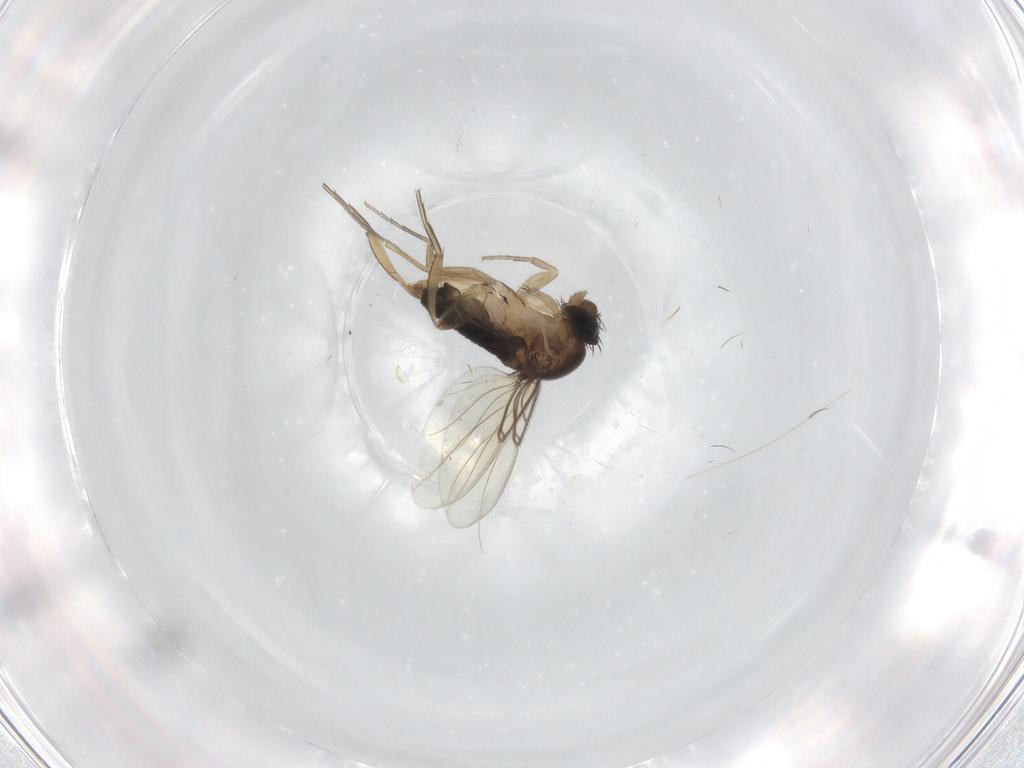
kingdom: Animalia
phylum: Arthropoda
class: Insecta
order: Diptera
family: Phoridae
